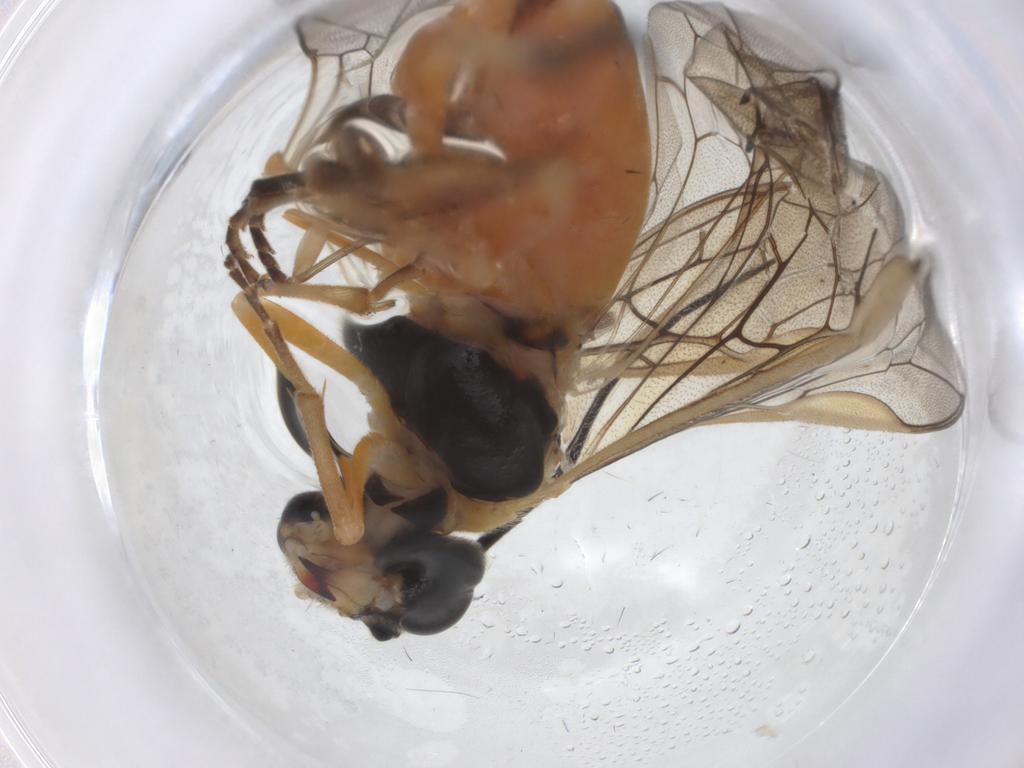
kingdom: Animalia
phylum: Arthropoda
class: Insecta
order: Hymenoptera
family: Tenthredinidae
